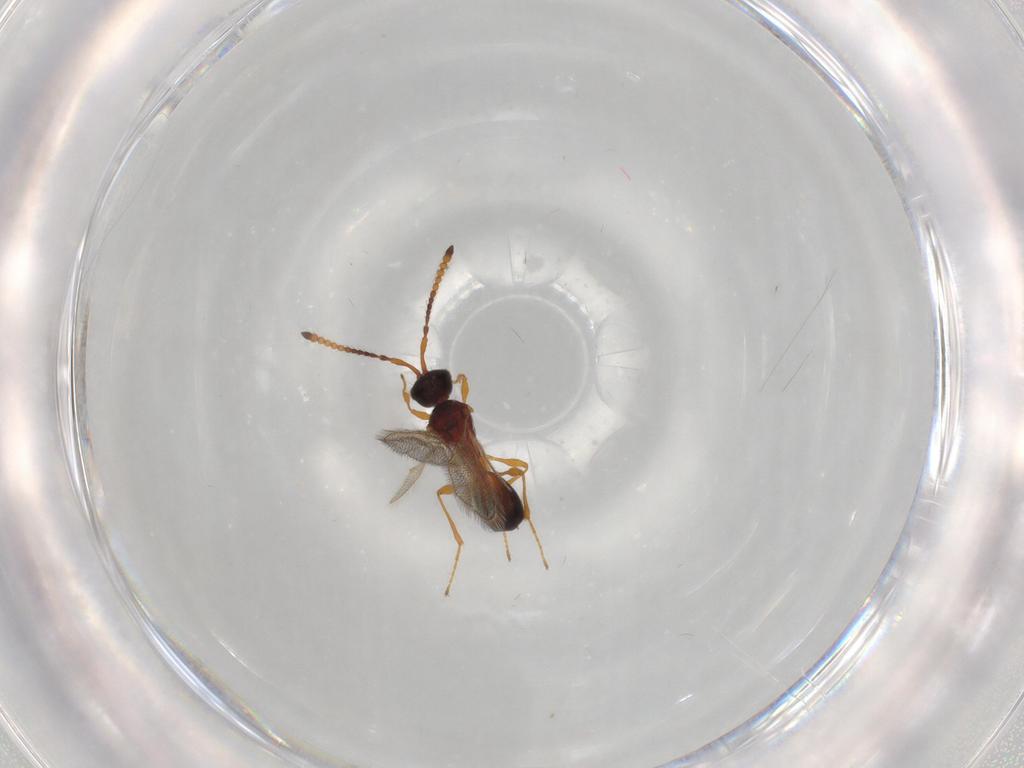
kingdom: Animalia
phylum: Arthropoda
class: Insecta
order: Hymenoptera
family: Diapriidae
